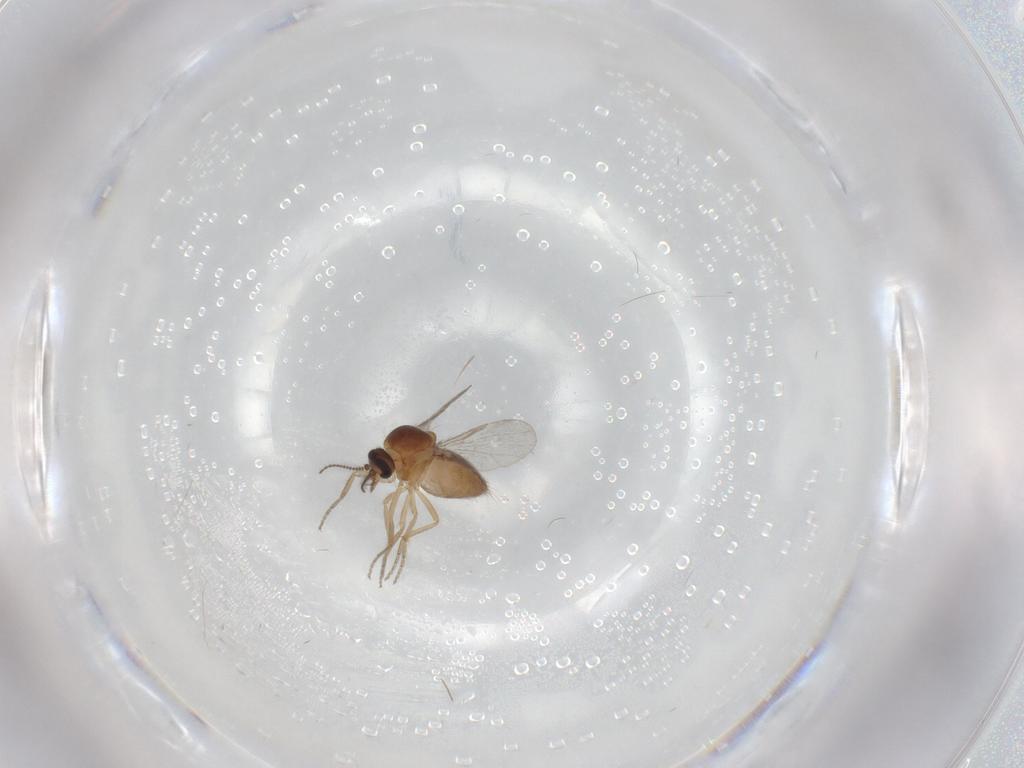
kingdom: Animalia
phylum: Arthropoda
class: Insecta
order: Diptera
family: Chironomidae
